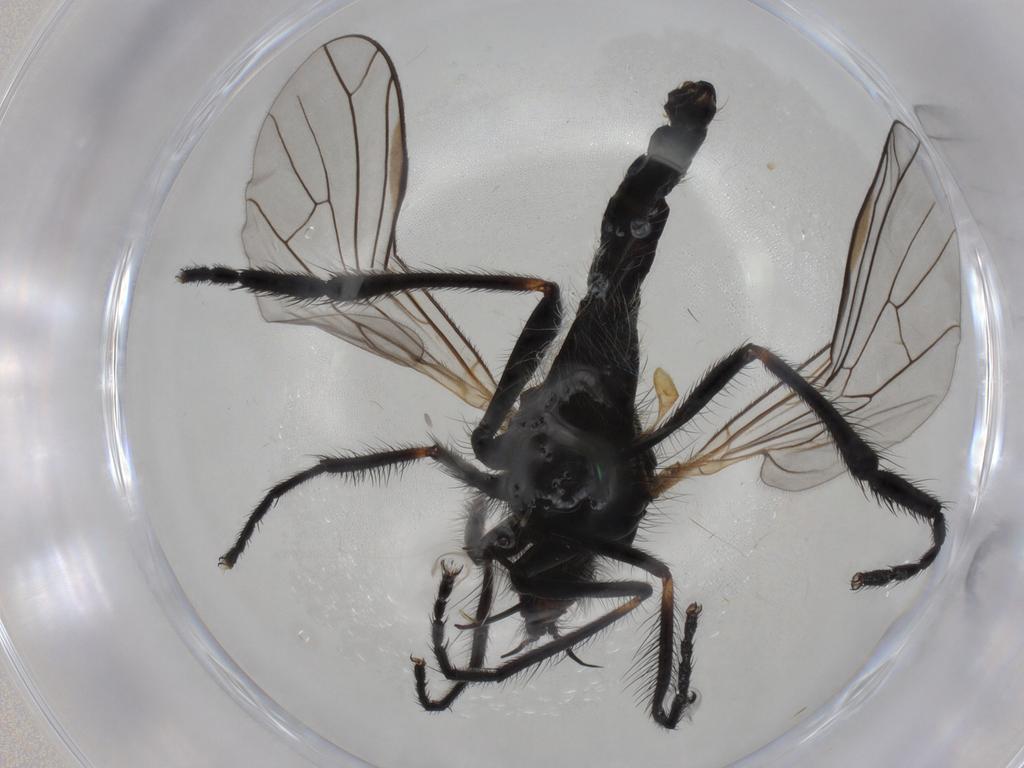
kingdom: Animalia
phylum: Arthropoda
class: Insecta
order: Diptera
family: Empididae
